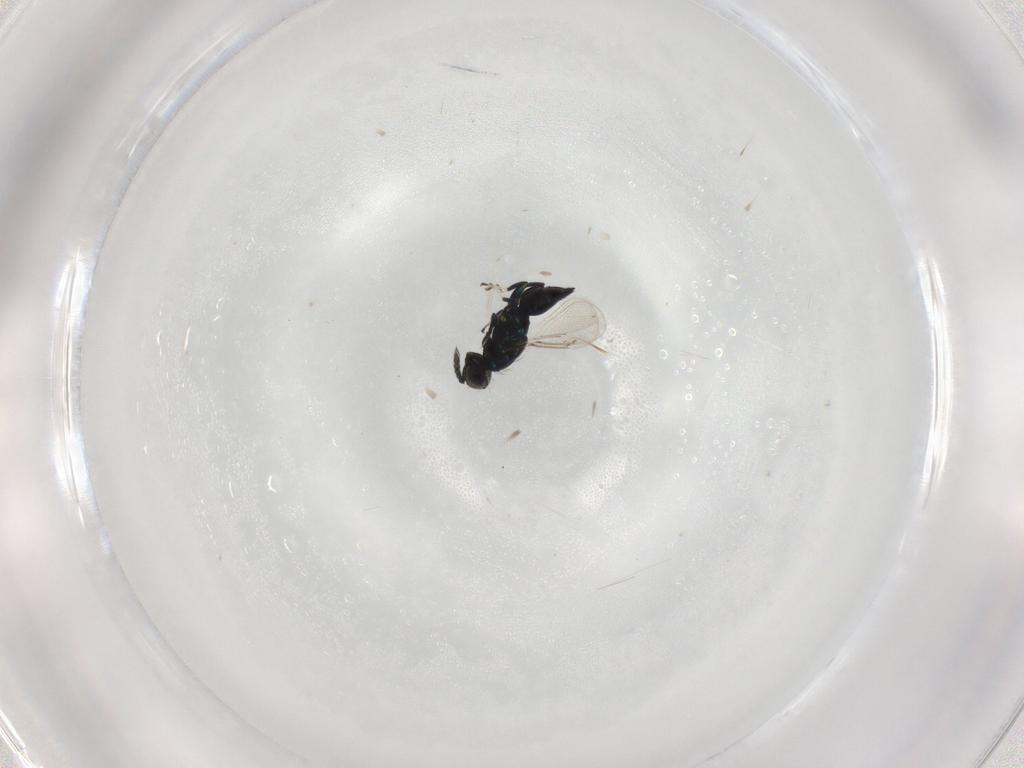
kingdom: Animalia
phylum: Arthropoda
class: Insecta
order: Hymenoptera
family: Eulophidae
